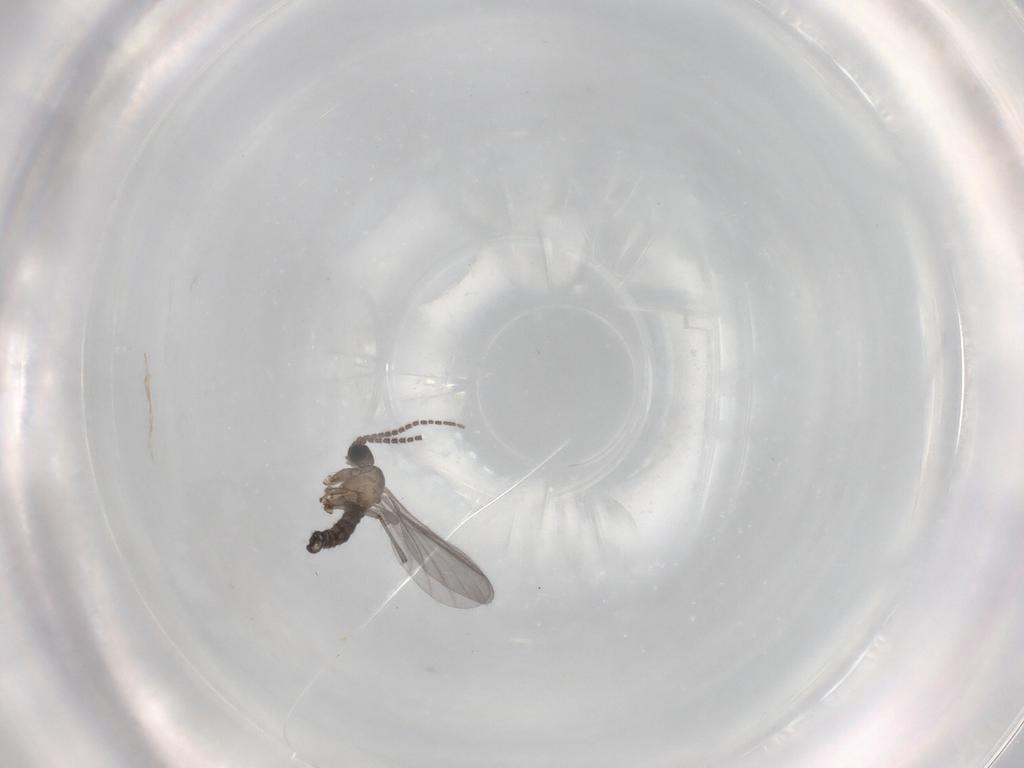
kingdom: Animalia
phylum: Arthropoda
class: Insecta
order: Diptera
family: Sciaridae
